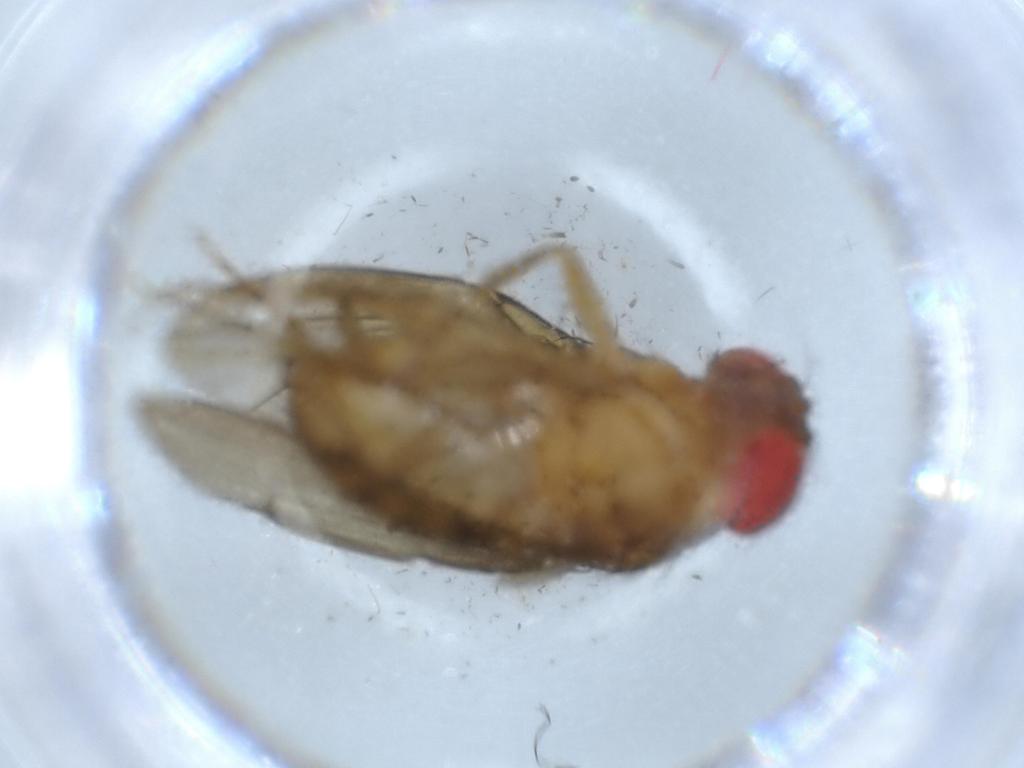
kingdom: Animalia
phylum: Arthropoda
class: Insecta
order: Diptera
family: Drosophilidae
